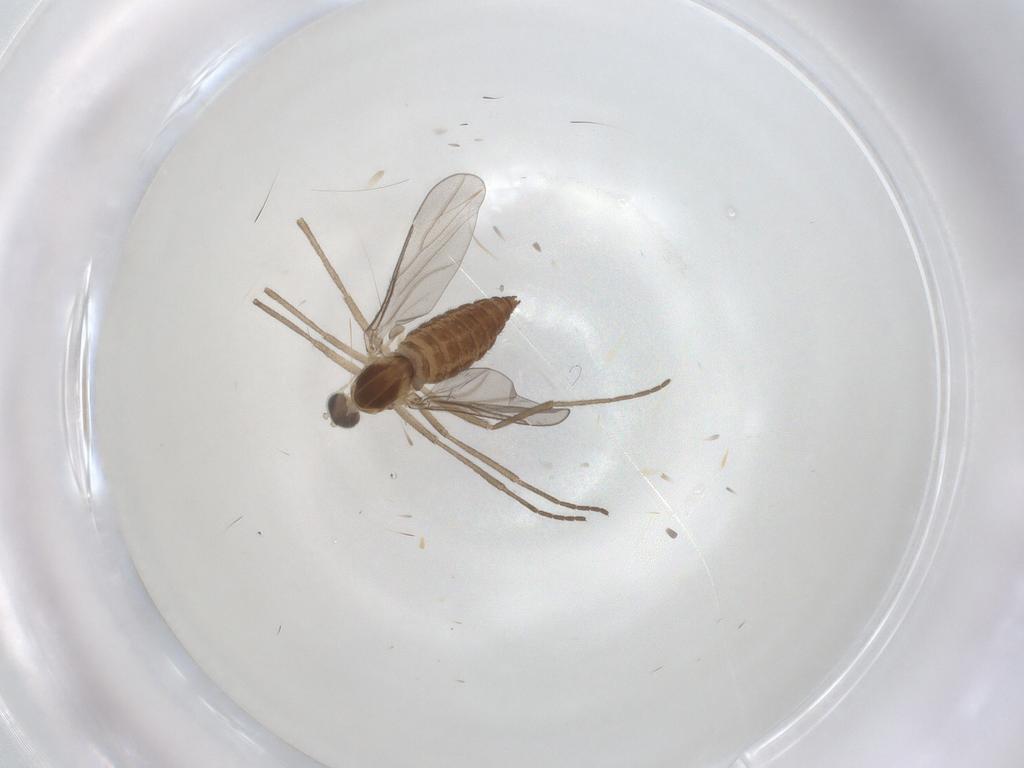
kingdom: Animalia
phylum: Arthropoda
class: Insecta
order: Diptera
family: Cecidomyiidae
